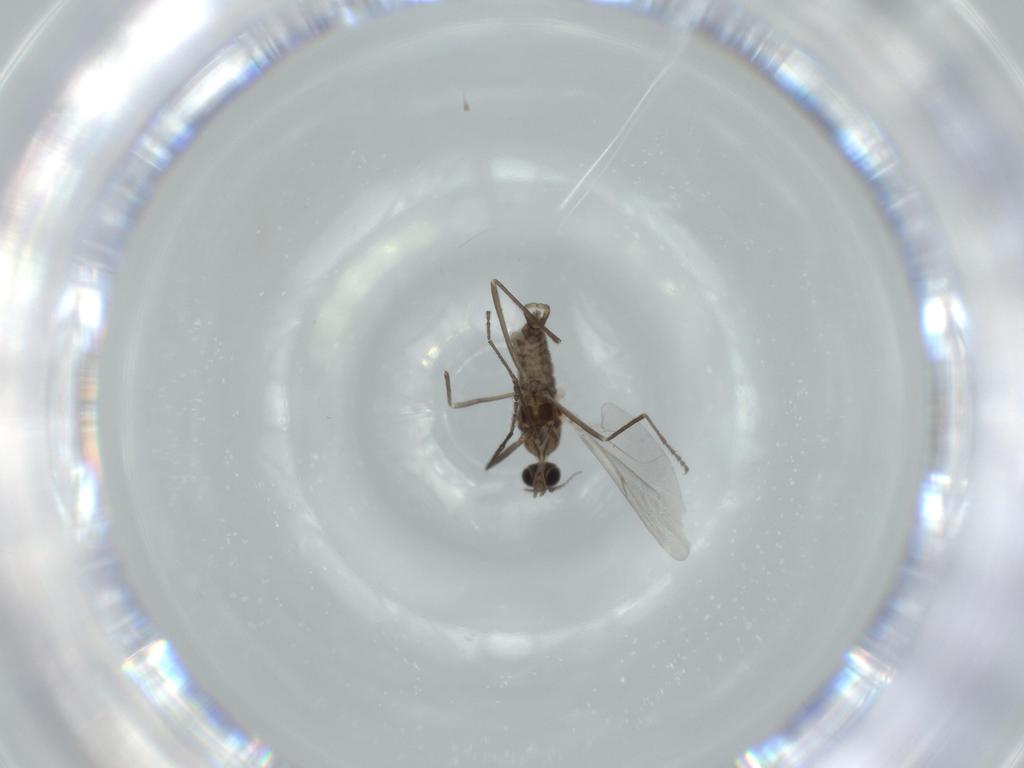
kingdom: Animalia
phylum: Arthropoda
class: Insecta
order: Diptera
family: Cecidomyiidae
